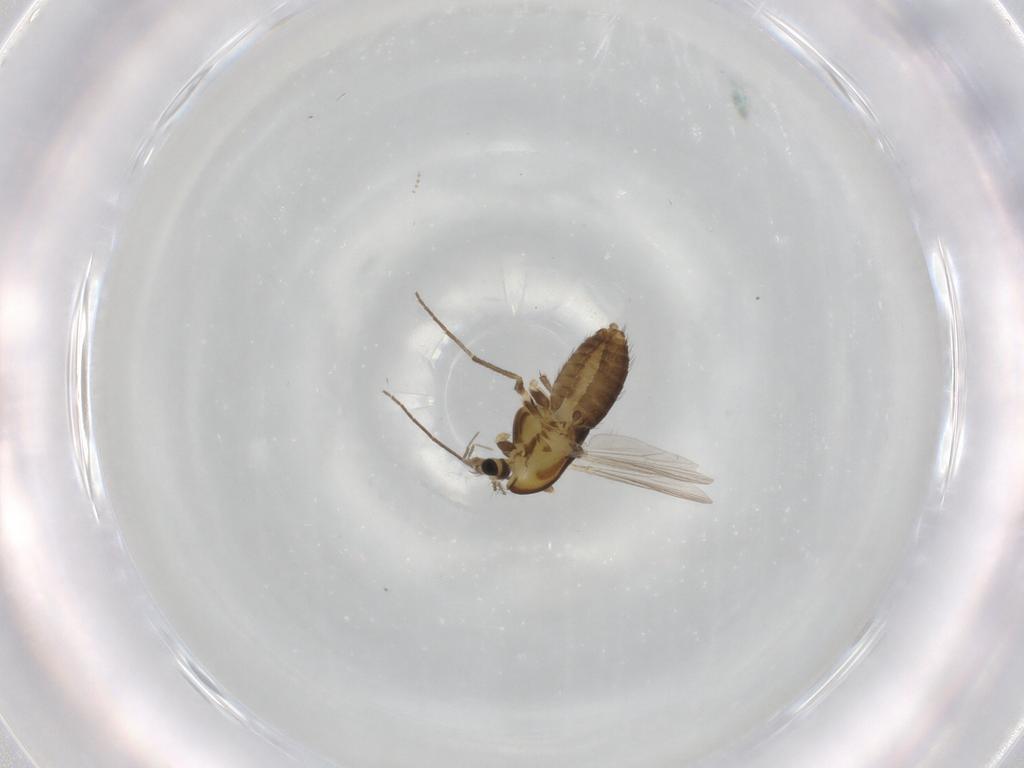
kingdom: Animalia
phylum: Arthropoda
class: Insecta
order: Diptera
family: Chironomidae
